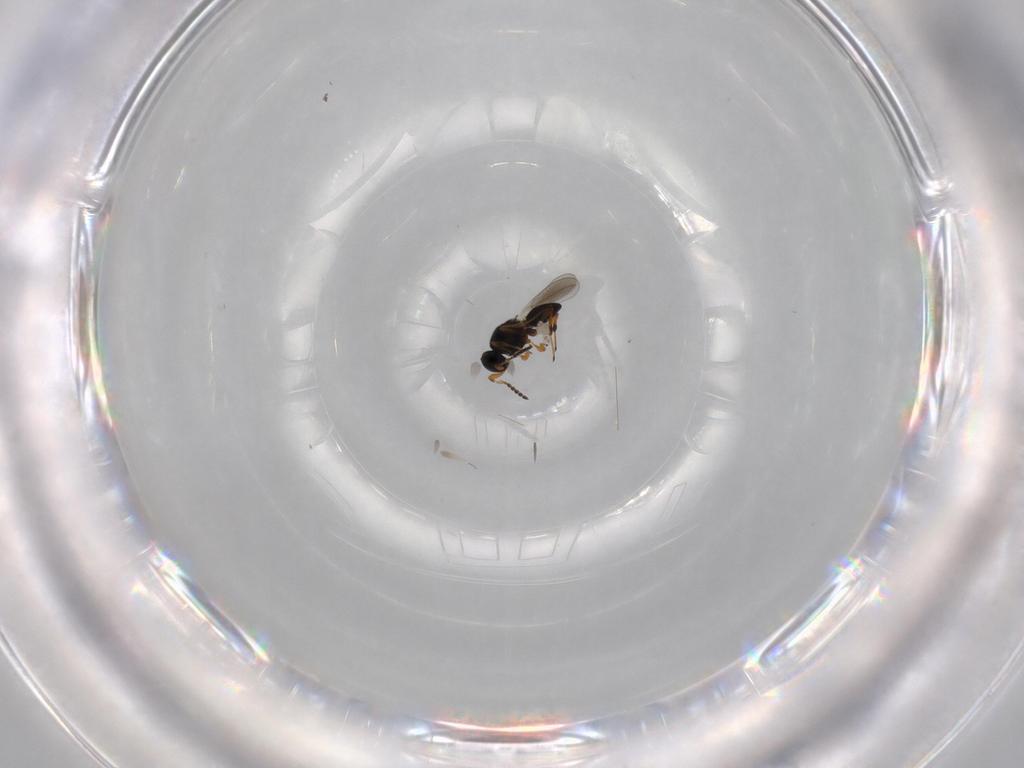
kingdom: Animalia
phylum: Arthropoda
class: Insecta
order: Hymenoptera
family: Platygastridae
